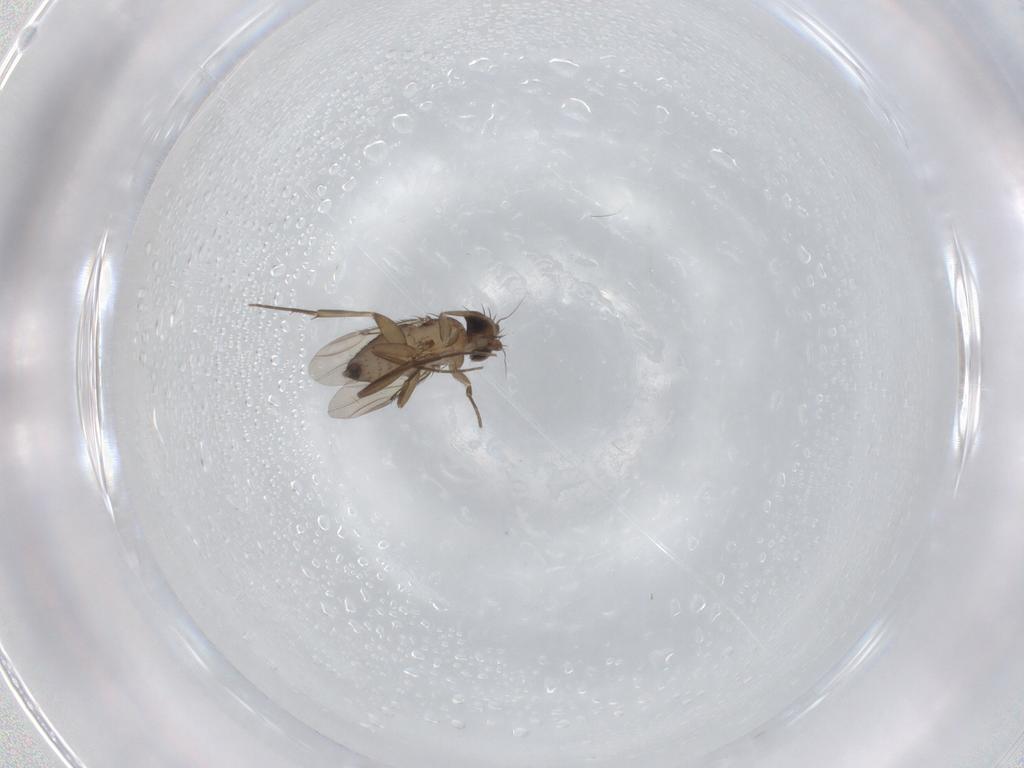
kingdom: Animalia
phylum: Arthropoda
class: Insecta
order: Diptera
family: Phoridae
